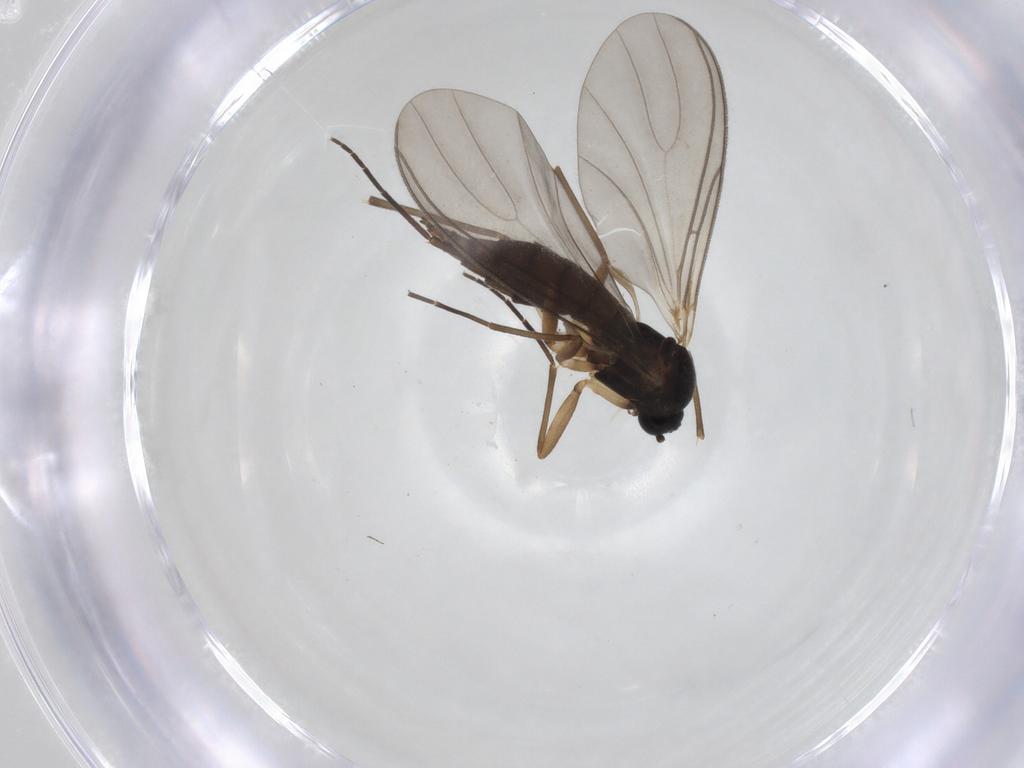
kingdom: Animalia
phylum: Arthropoda
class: Insecta
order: Diptera
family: Sciaridae
